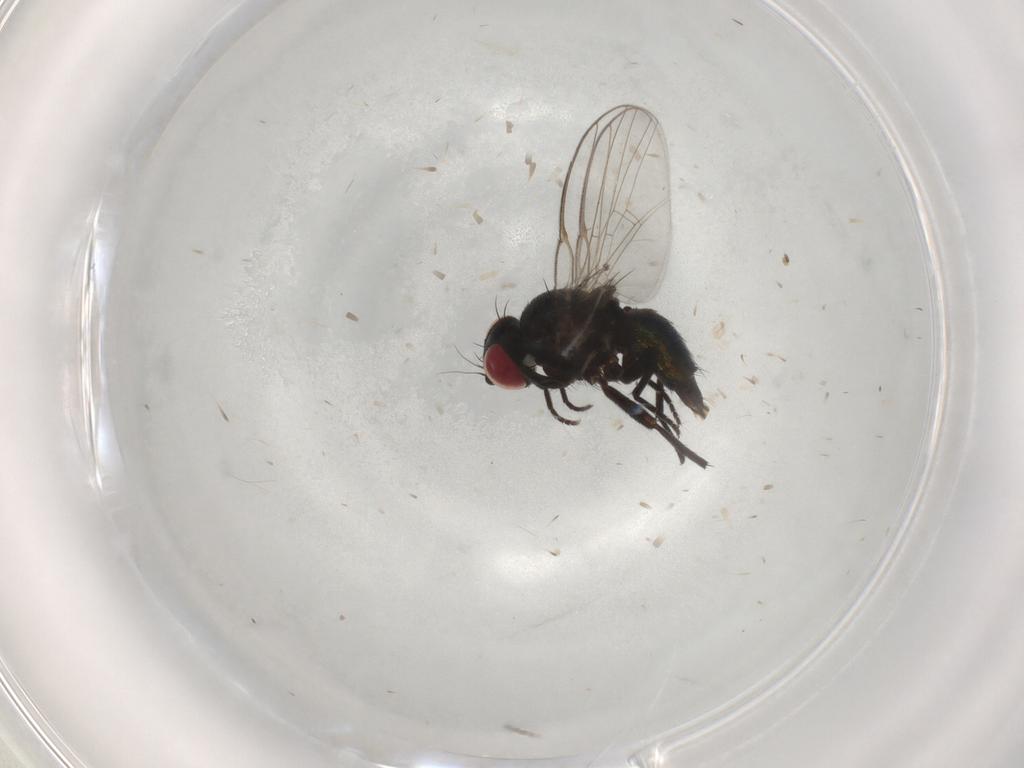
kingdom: Animalia
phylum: Arthropoda
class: Insecta
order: Diptera
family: Agromyzidae
